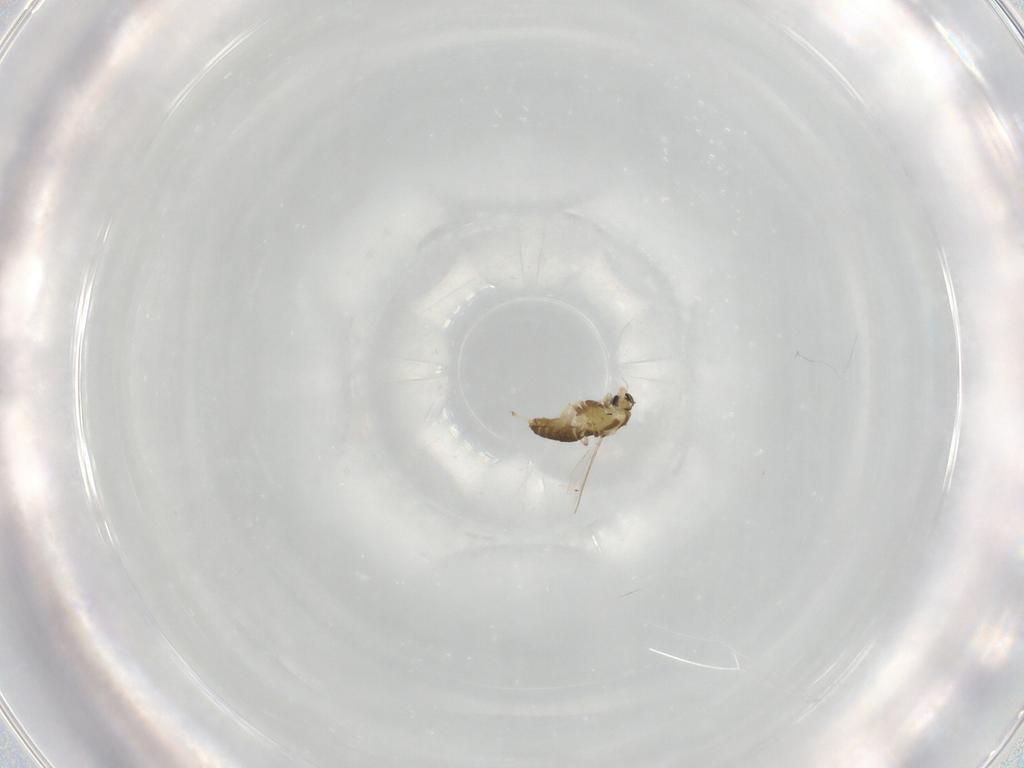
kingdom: Animalia
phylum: Arthropoda
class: Insecta
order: Diptera
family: Chironomidae
